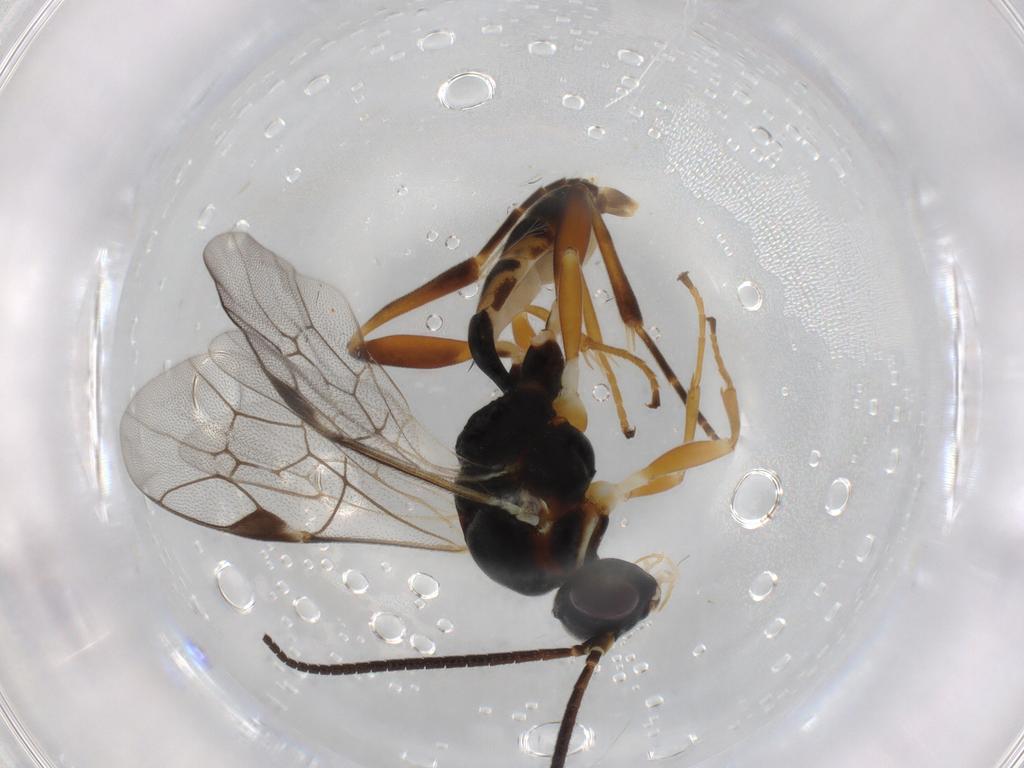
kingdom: Animalia
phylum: Arthropoda
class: Insecta
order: Hymenoptera
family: Scelionidae
